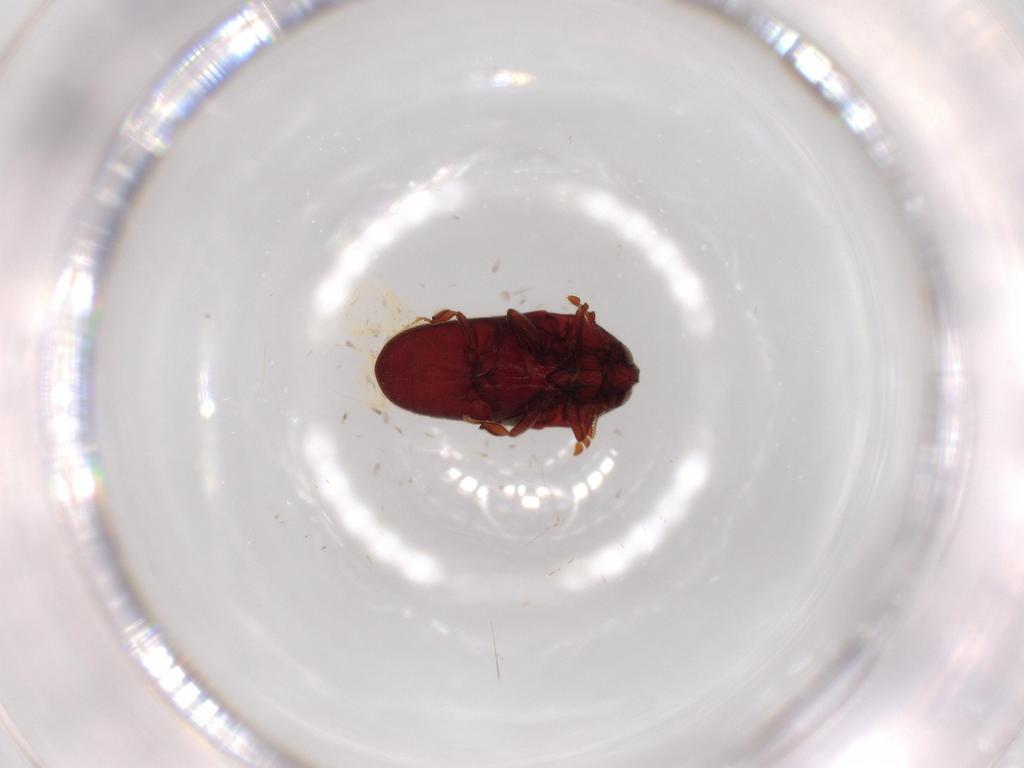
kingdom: Animalia
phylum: Arthropoda
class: Insecta
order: Coleoptera
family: Throscidae
